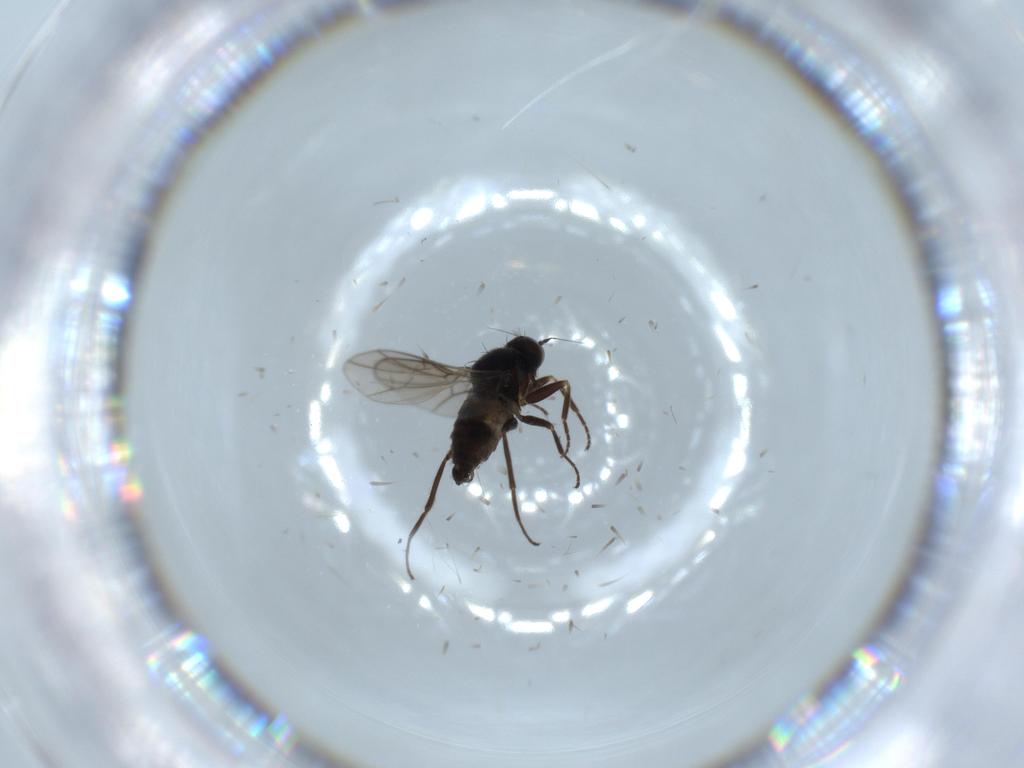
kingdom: Animalia
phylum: Arthropoda
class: Insecta
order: Diptera
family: Hybotidae
